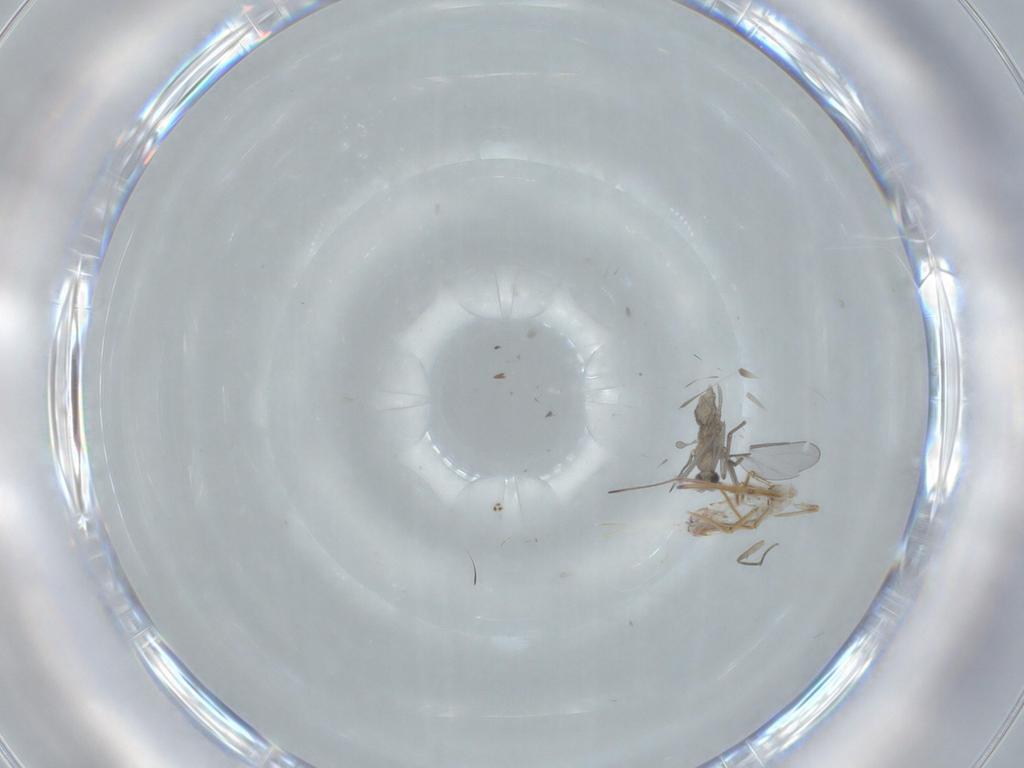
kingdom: Animalia
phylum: Arthropoda
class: Insecta
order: Diptera
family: Cecidomyiidae
